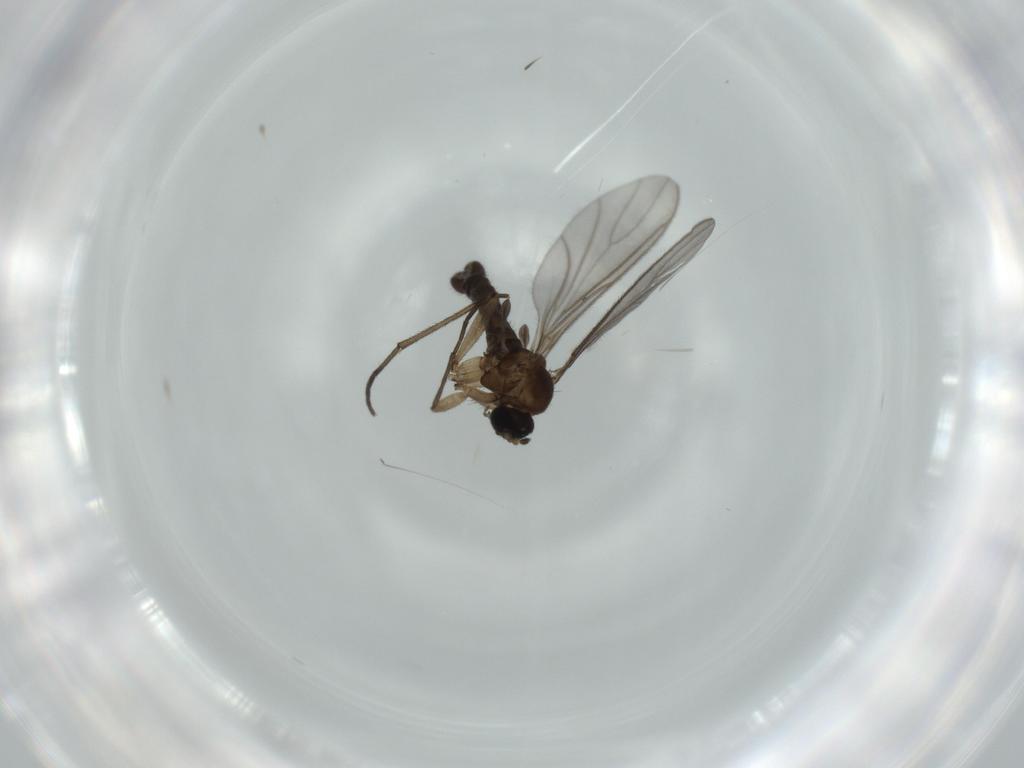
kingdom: Animalia
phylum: Arthropoda
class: Insecta
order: Diptera
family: Sciaridae
